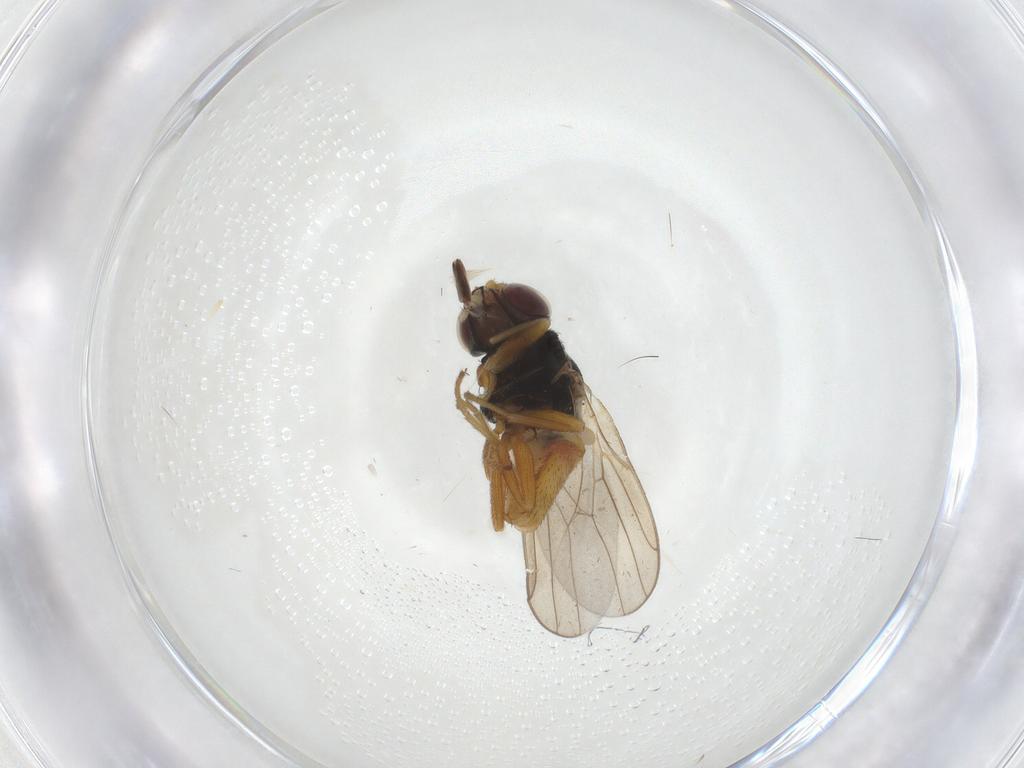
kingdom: Animalia
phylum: Arthropoda
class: Insecta
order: Diptera
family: Chloropidae
